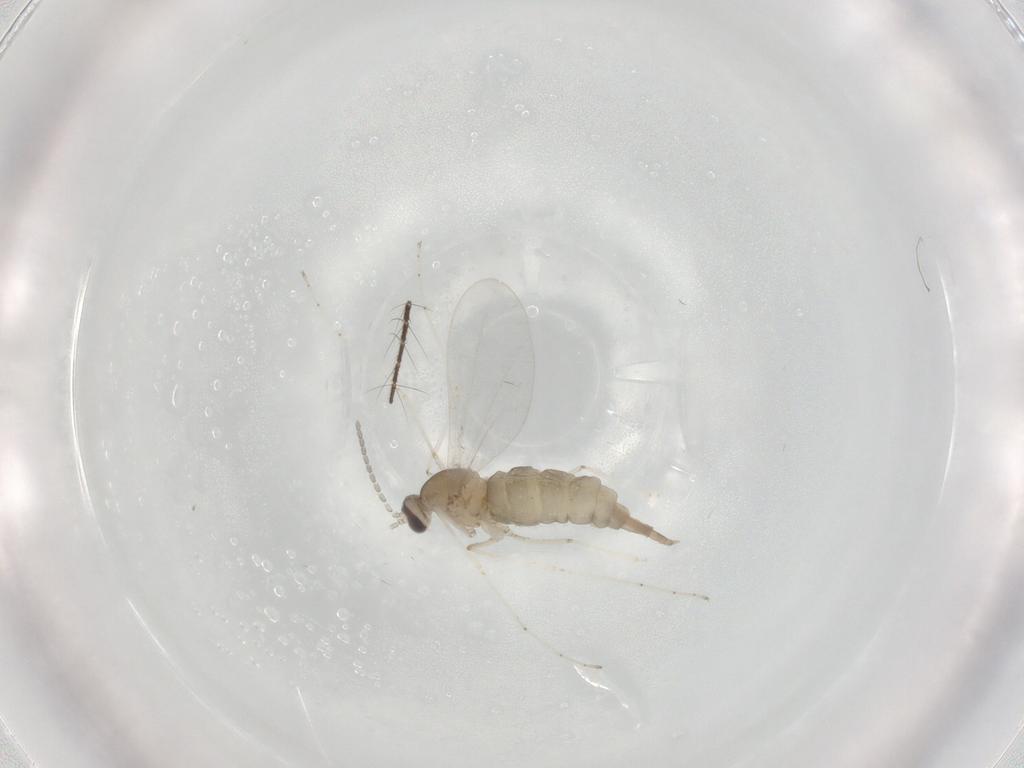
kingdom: Animalia
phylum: Arthropoda
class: Insecta
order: Diptera
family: Cecidomyiidae
